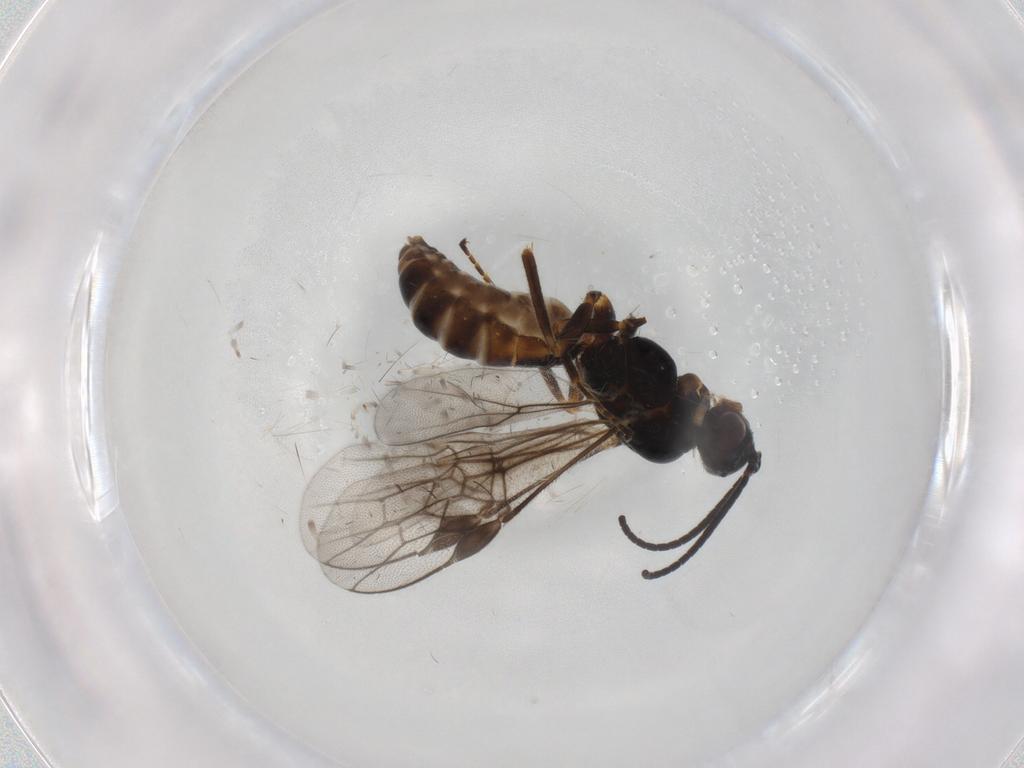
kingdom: Animalia
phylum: Arthropoda
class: Insecta
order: Hymenoptera
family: Braconidae
